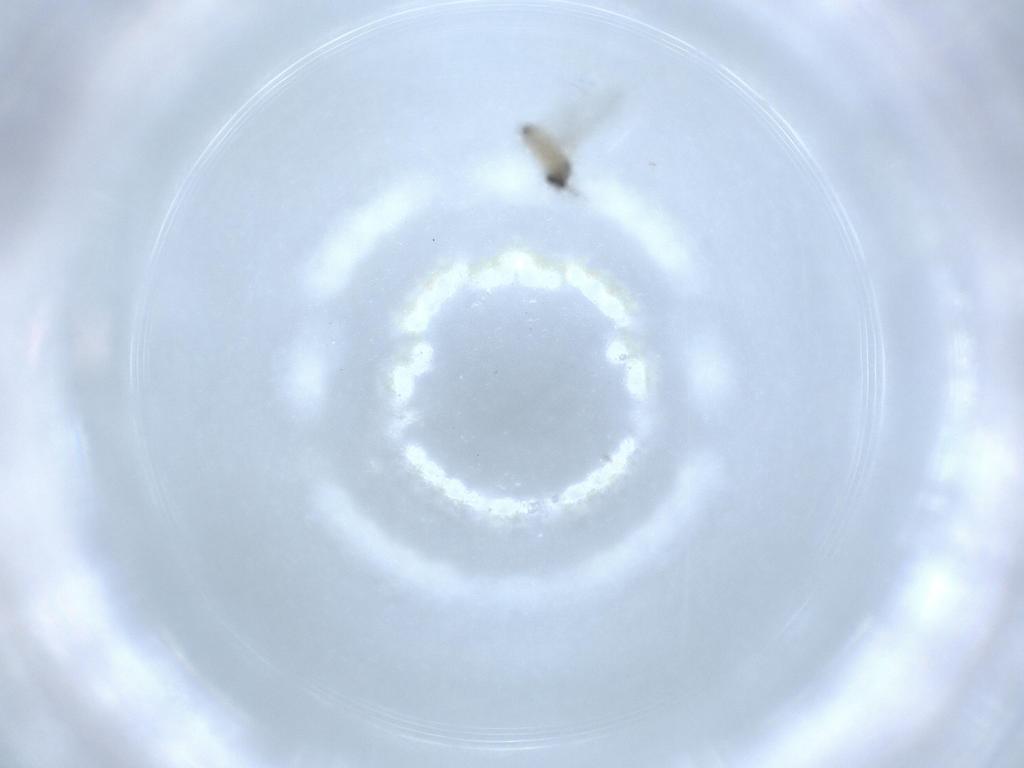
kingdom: Animalia
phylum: Arthropoda
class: Insecta
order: Diptera
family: Cecidomyiidae
